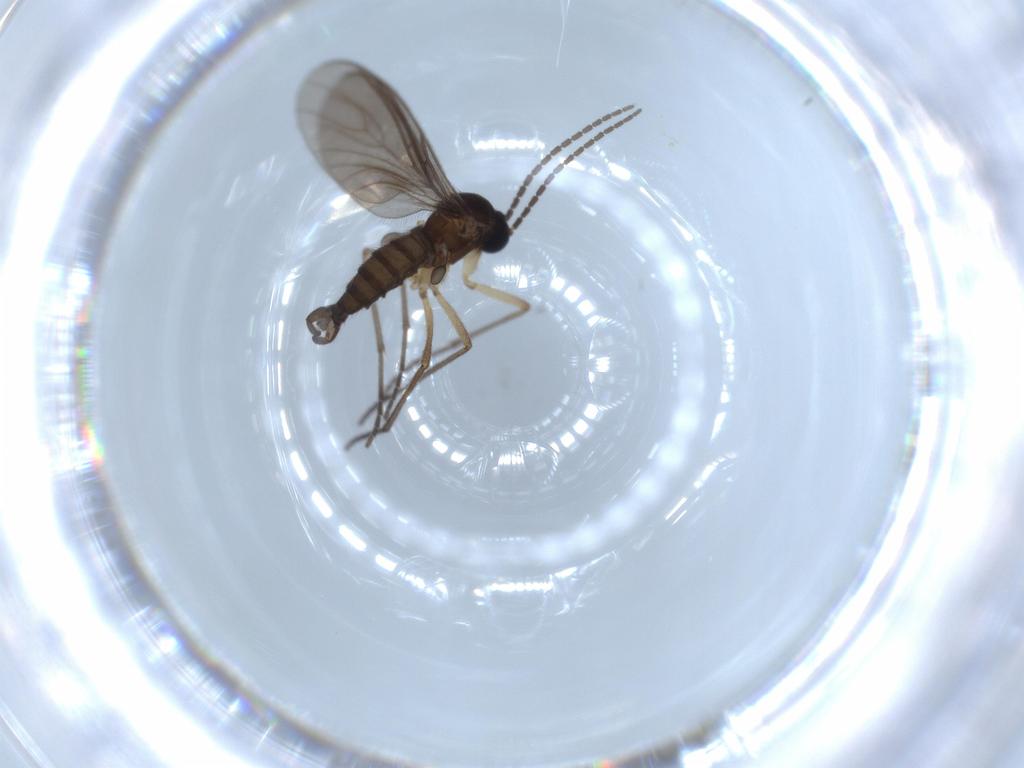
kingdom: Animalia
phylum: Arthropoda
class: Insecta
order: Diptera
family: Sciaridae
